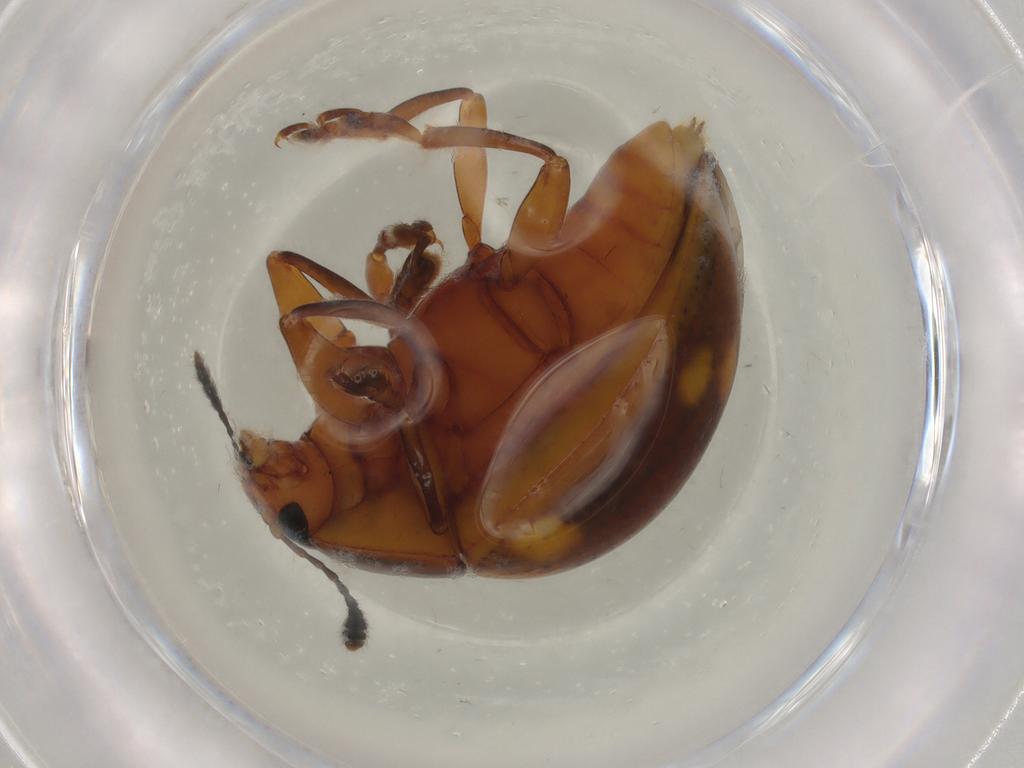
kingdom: Animalia
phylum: Arthropoda
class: Insecta
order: Coleoptera
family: Erotylidae
